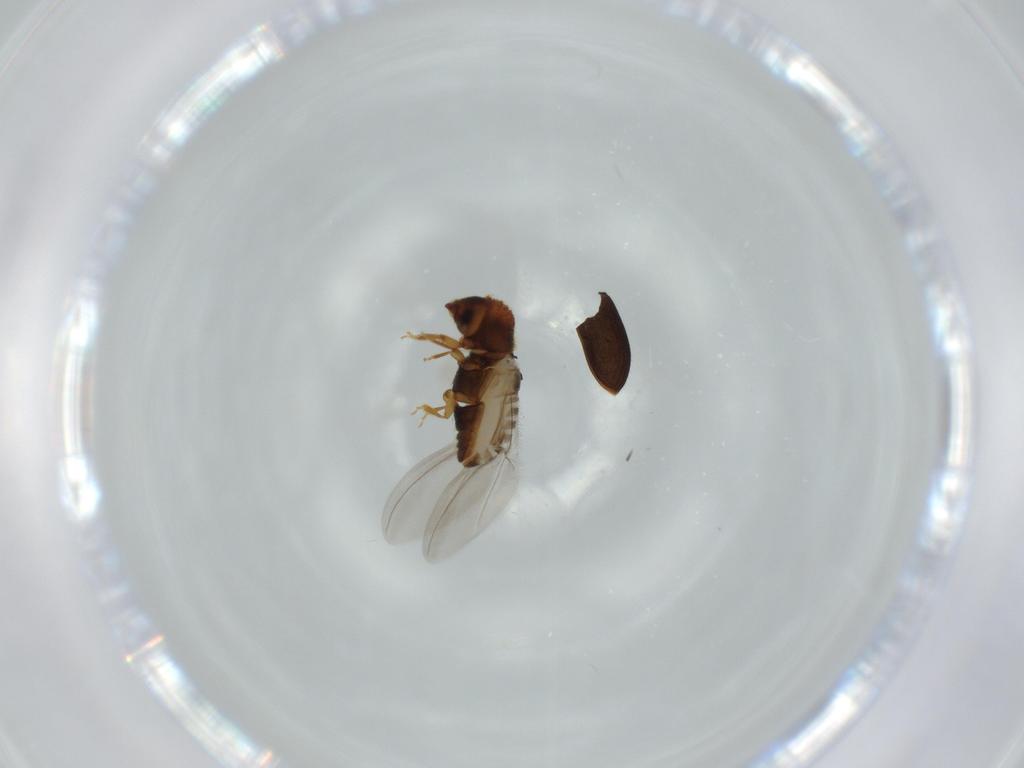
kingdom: Animalia
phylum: Arthropoda
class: Insecta
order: Coleoptera
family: Curculionidae
